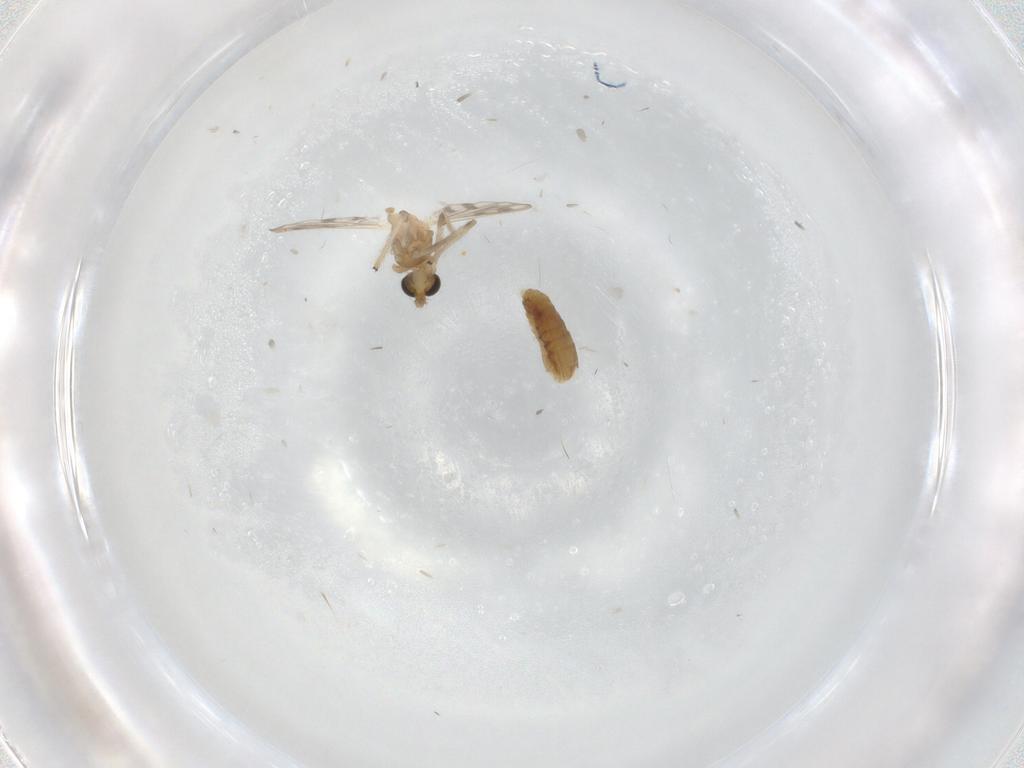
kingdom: Animalia
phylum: Arthropoda
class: Insecta
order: Diptera
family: Chironomidae
